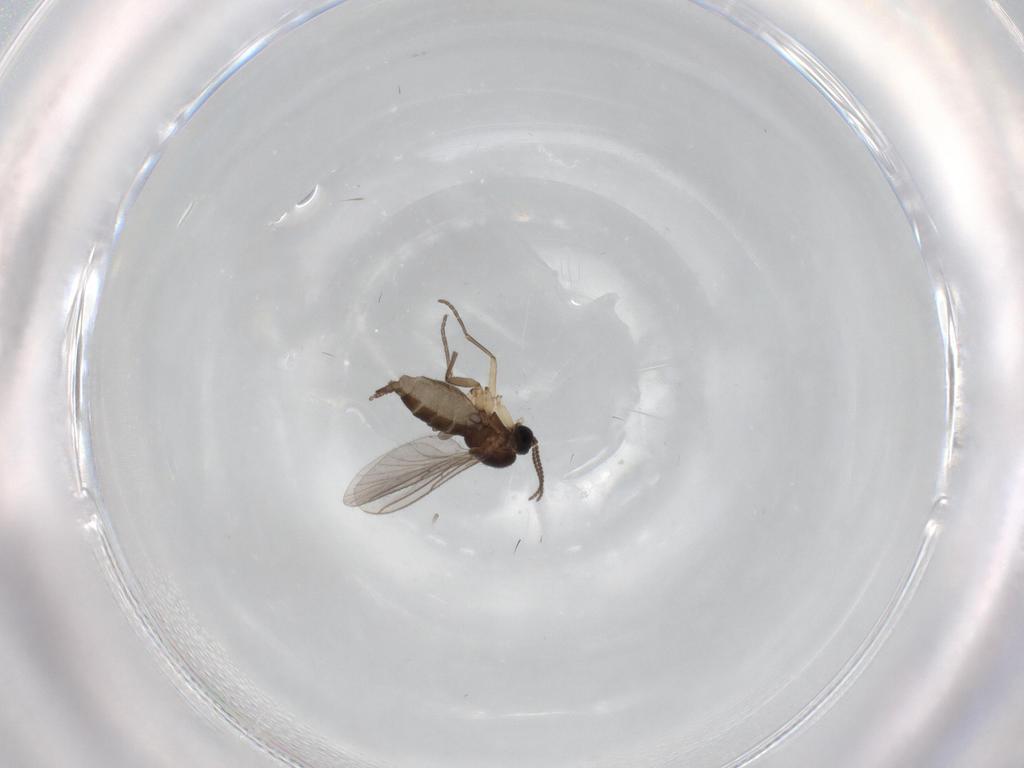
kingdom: Animalia
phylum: Arthropoda
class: Insecta
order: Diptera
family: Sciaridae
